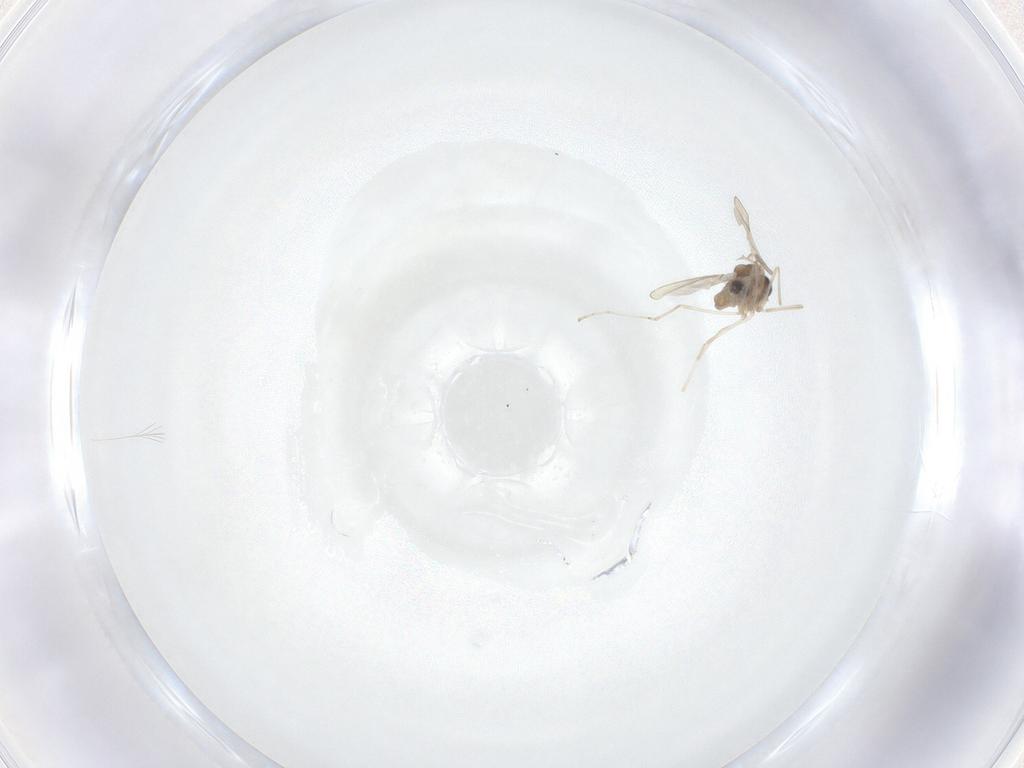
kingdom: Animalia
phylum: Arthropoda
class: Insecta
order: Diptera
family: Cecidomyiidae
